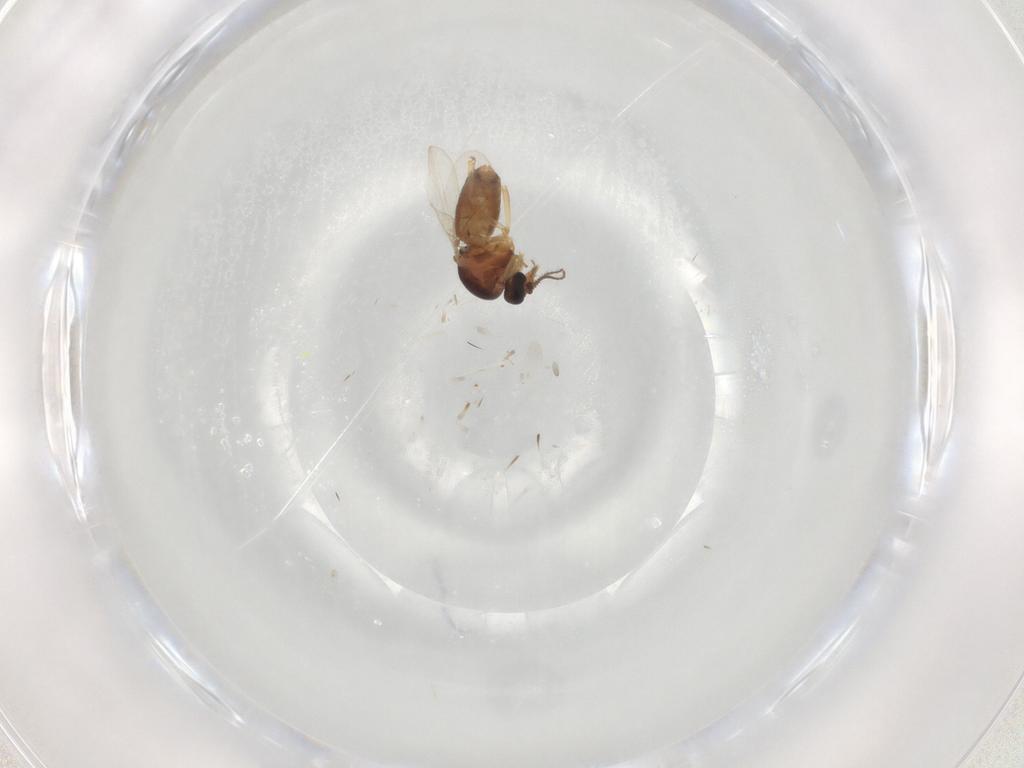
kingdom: Animalia
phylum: Arthropoda
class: Insecta
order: Diptera
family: Ceratopogonidae
